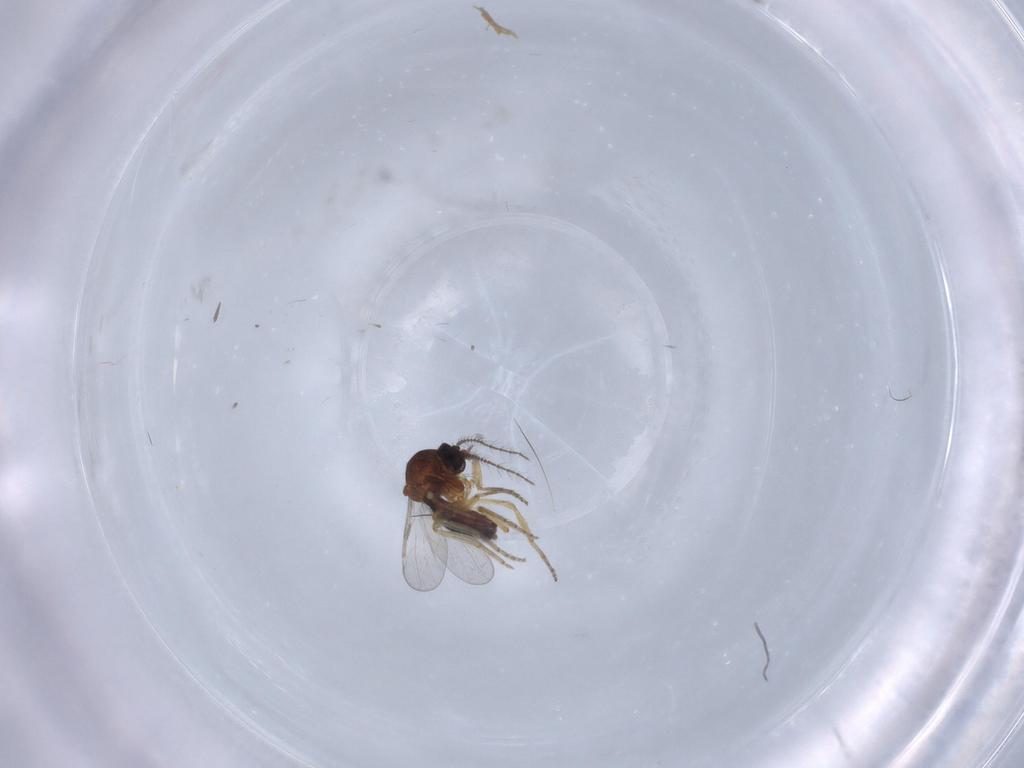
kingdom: Animalia
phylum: Arthropoda
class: Insecta
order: Diptera
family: Ceratopogonidae
